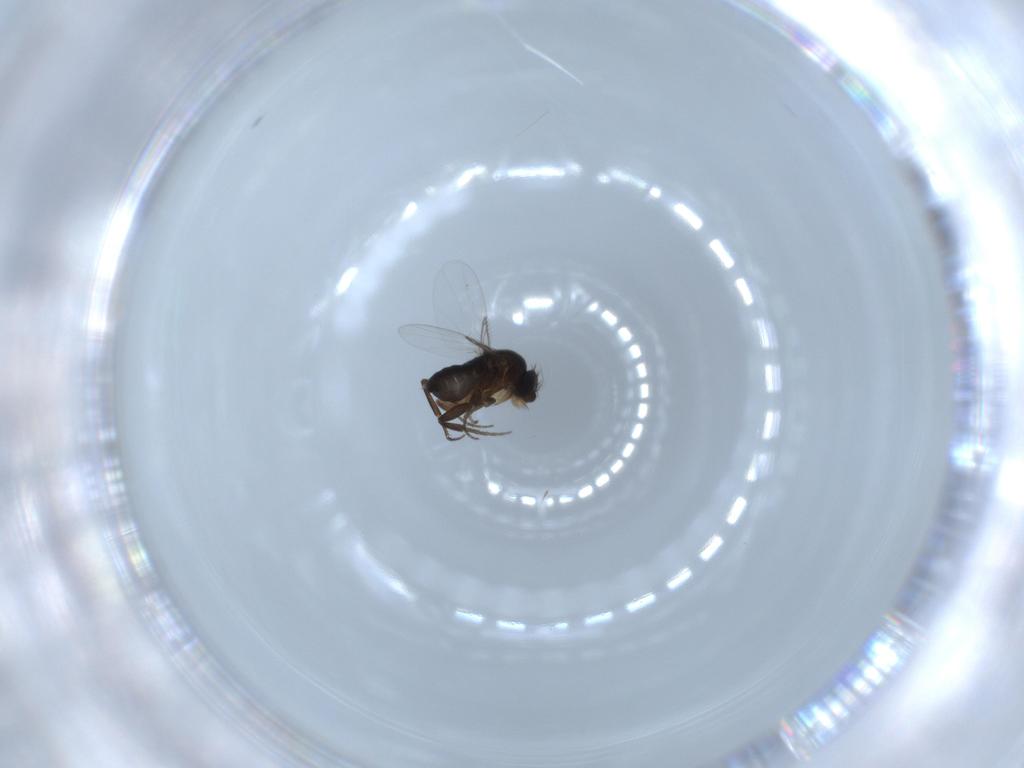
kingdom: Animalia
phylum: Arthropoda
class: Insecta
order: Diptera
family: Phoridae
